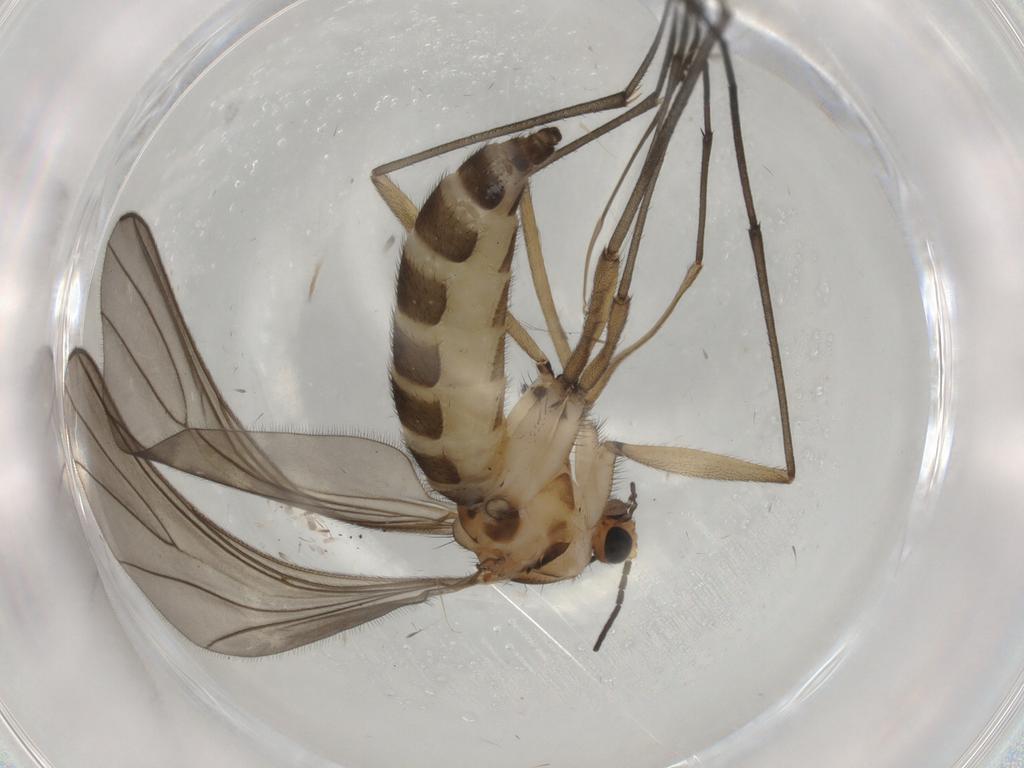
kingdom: Animalia
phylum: Arthropoda
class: Insecta
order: Diptera
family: Sciaridae
